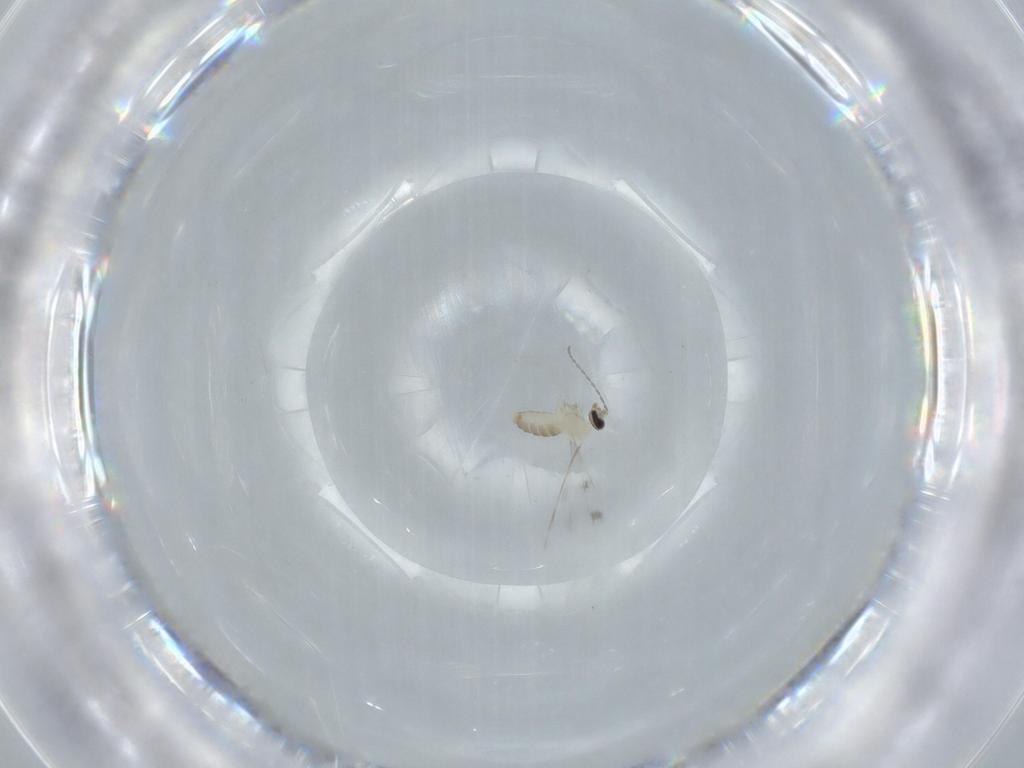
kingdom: Animalia
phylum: Arthropoda
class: Insecta
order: Diptera
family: Cecidomyiidae
